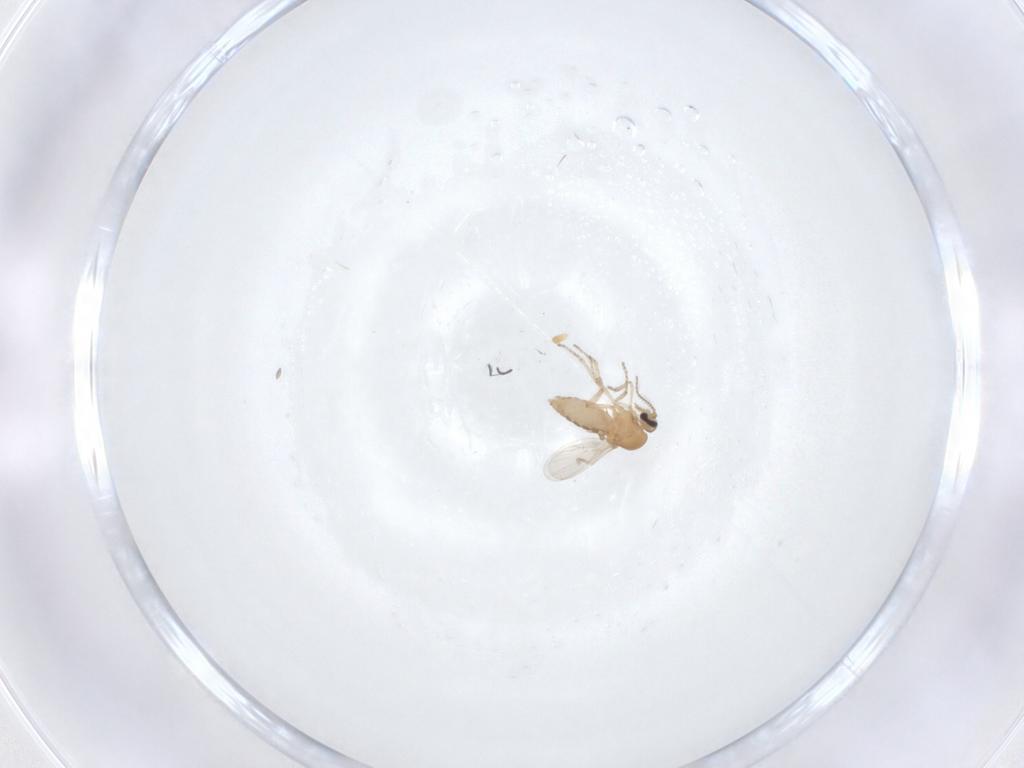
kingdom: Animalia
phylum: Arthropoda
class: Insecta
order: Diptera
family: Ceratopogonidae
